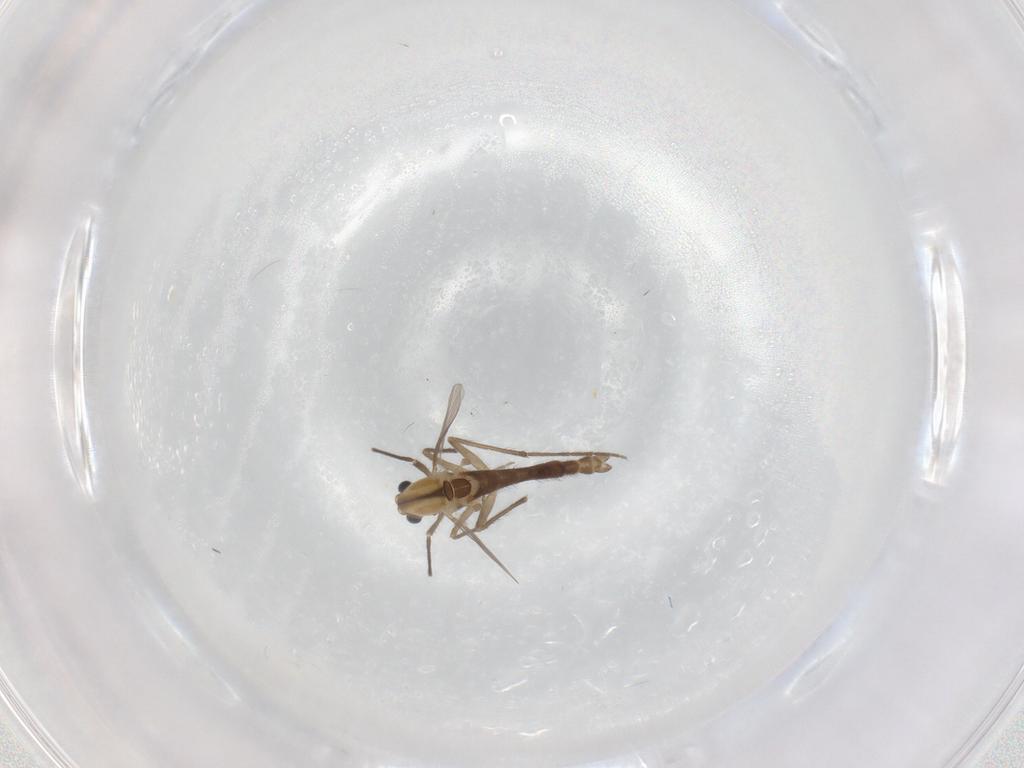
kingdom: Animalia
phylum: Arthropoda
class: Insecta
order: Diptera
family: Chironomidae
